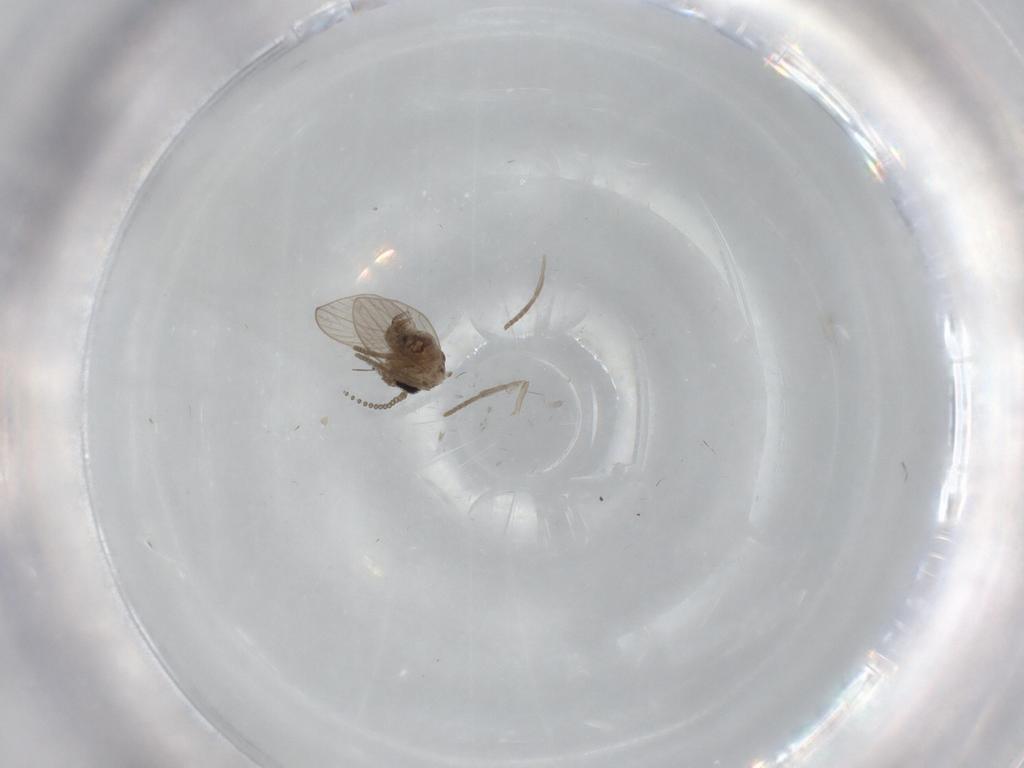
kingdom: Animalia
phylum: Arthropoda
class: Insecta
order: Diptera
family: Psychodidae
